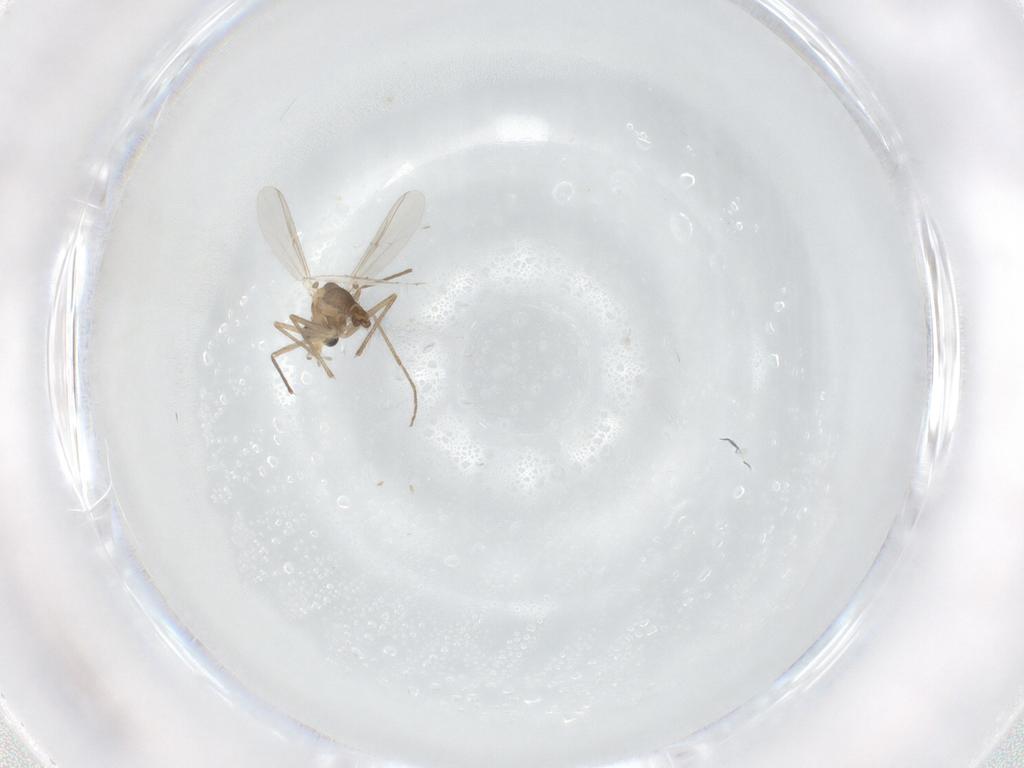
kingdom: Animalia
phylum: Arthropoda
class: Insecta
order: Diptera
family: Chironomidae
